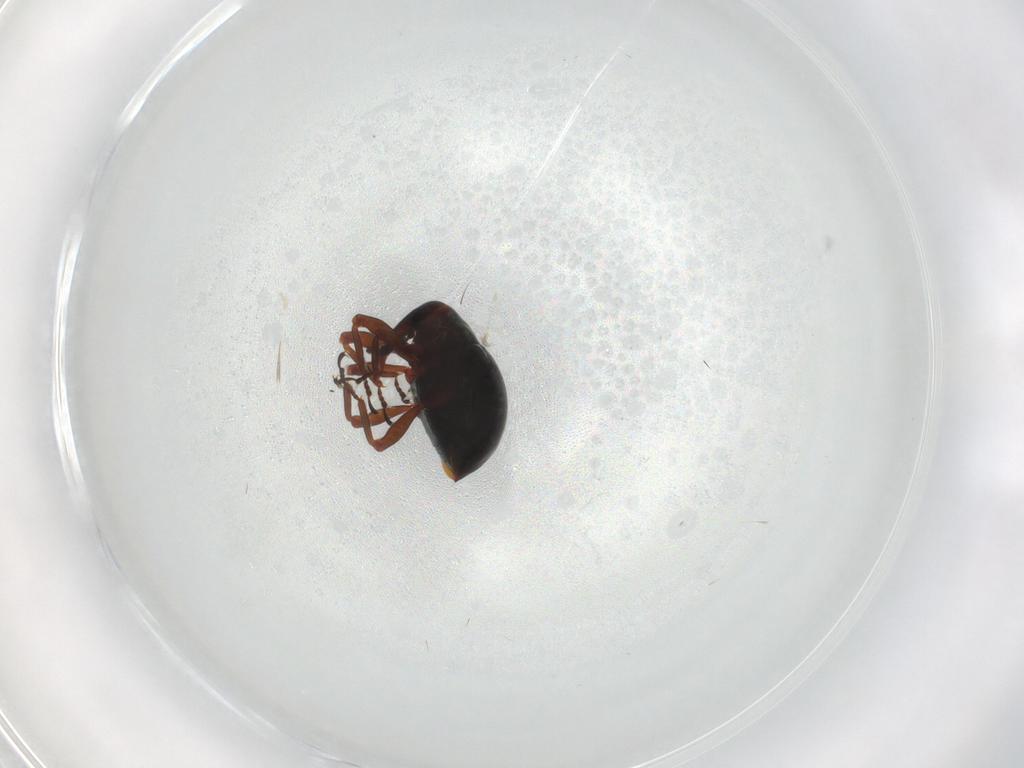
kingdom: Animalia
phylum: Arthropoda
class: Insecta
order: Coleoptera
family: Curculionidae
